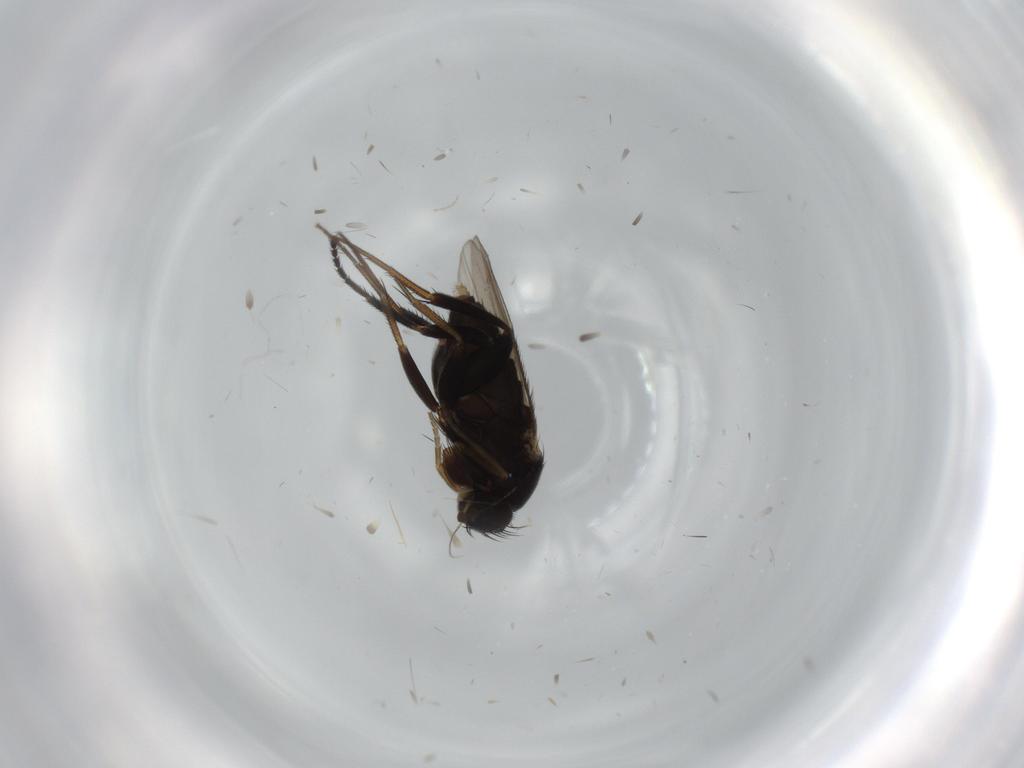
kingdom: Animalia
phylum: Arthropoda
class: Insecta
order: Diptera
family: Phoridae
